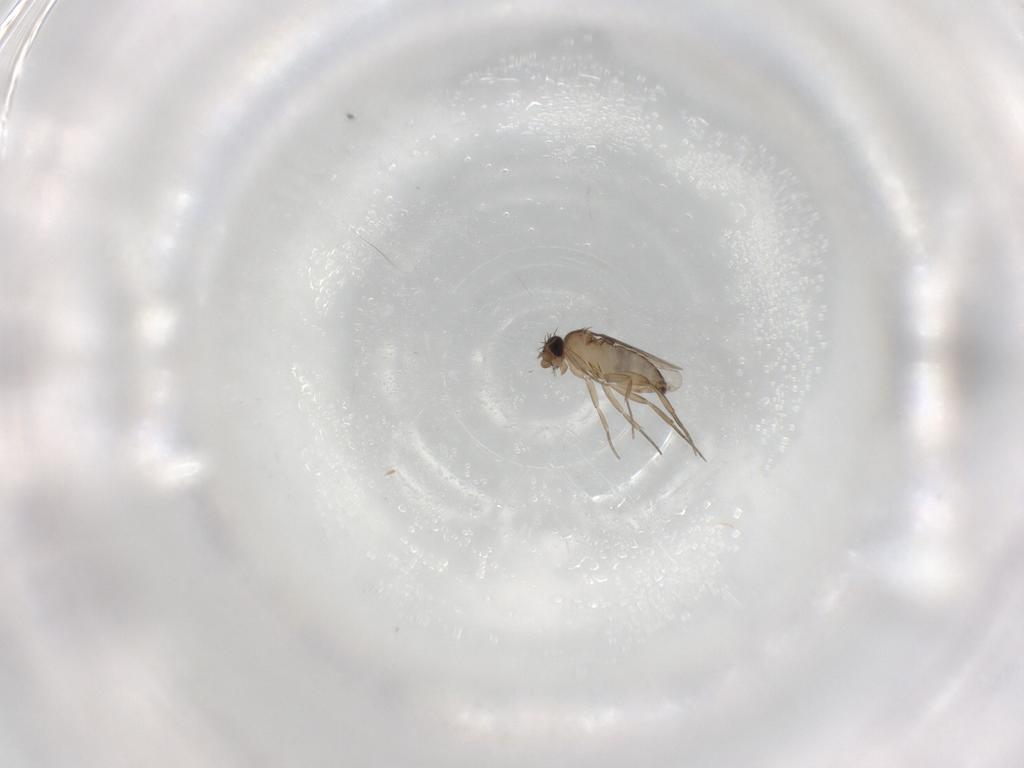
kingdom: Animalia
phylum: Arthropoda
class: Insecta
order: Diptera
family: Phoridae
